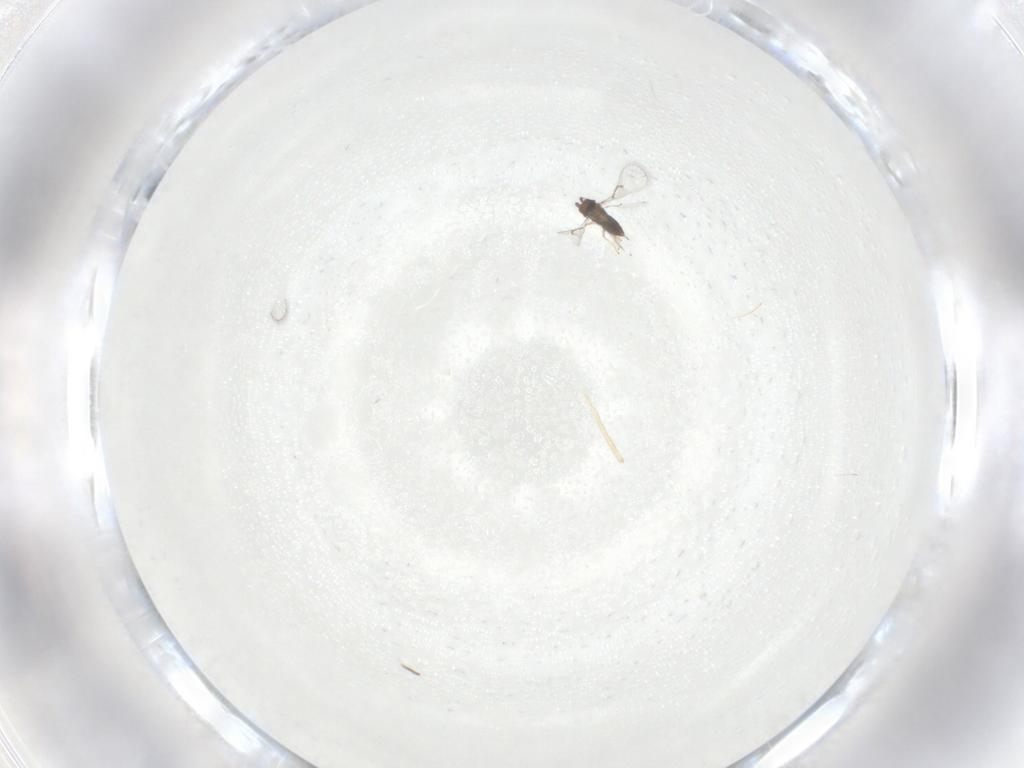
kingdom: Animalia
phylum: Arthropoda
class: Insecta
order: Hymenoptera
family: Trichogrammatidae
